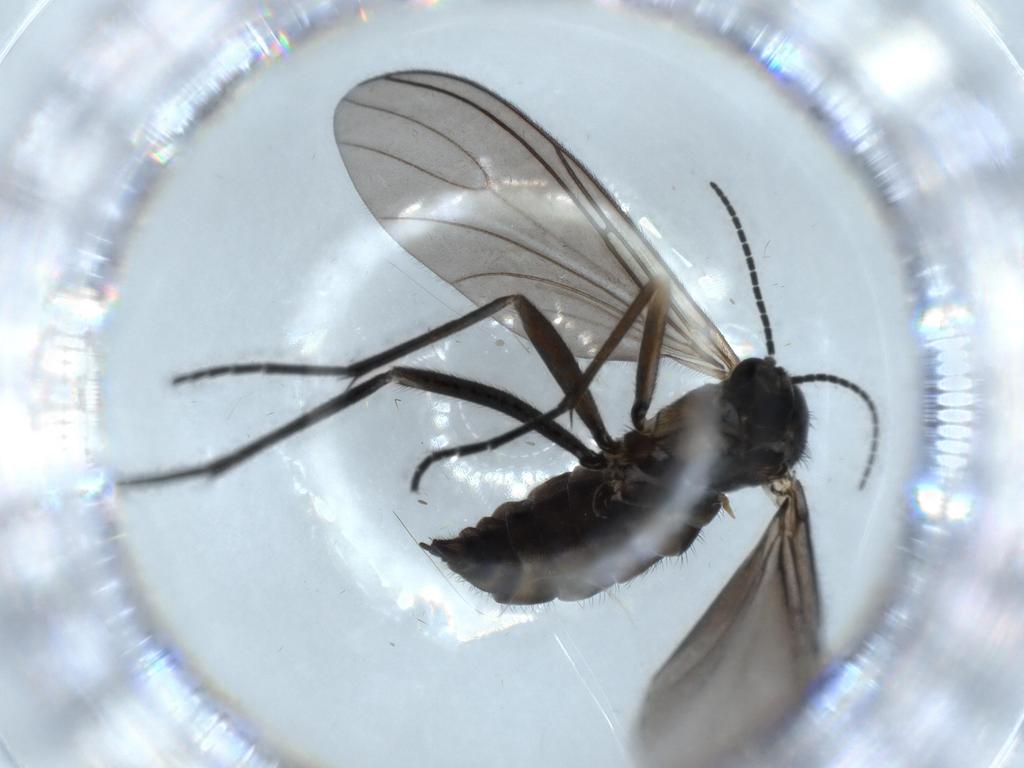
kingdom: Animalia
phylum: Arthropoda
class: Insecta
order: Diptera
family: Sciaridae
